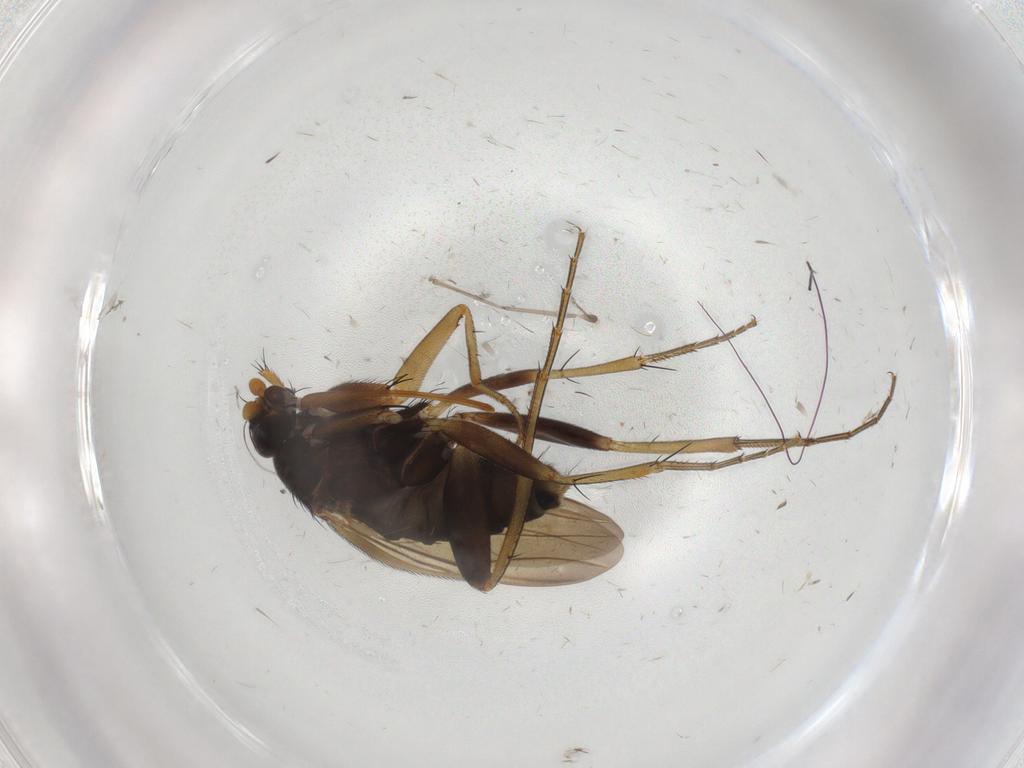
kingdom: Animalia
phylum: Arthropoda
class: Insecta
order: Diptera
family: Phoridae
